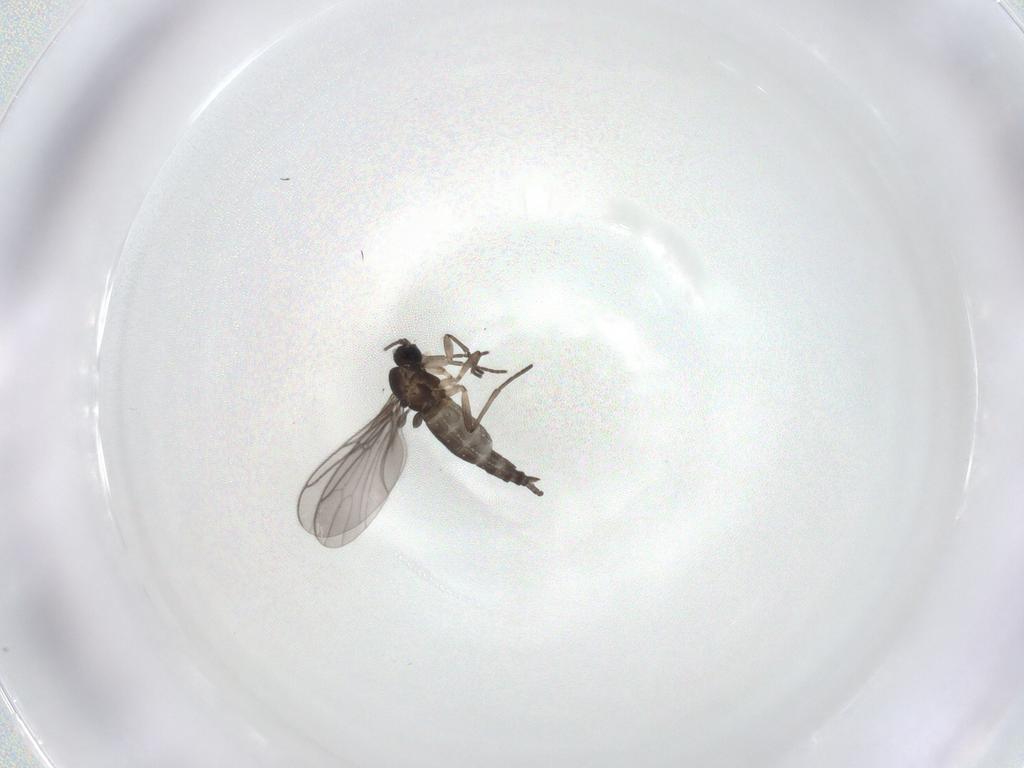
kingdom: Animalia
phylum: Arthropoda
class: Insecta
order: Diptera
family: Sciaridae
